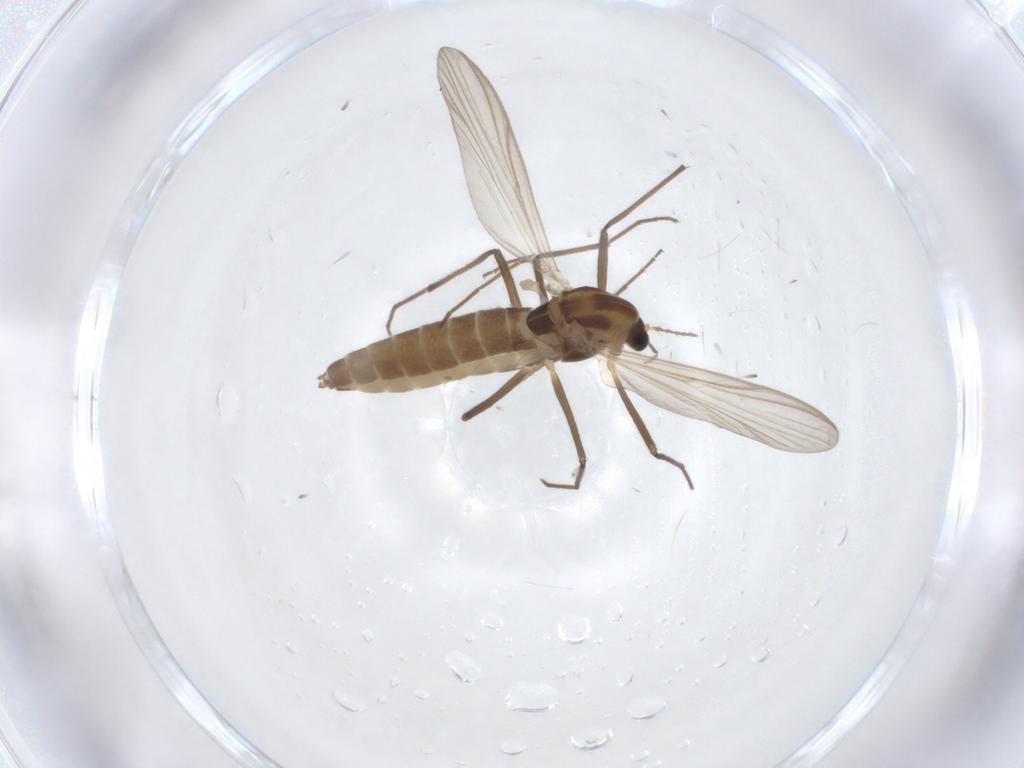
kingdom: Animalia
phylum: Arthropoda
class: Insecta
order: Diptera
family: Chironomidae
